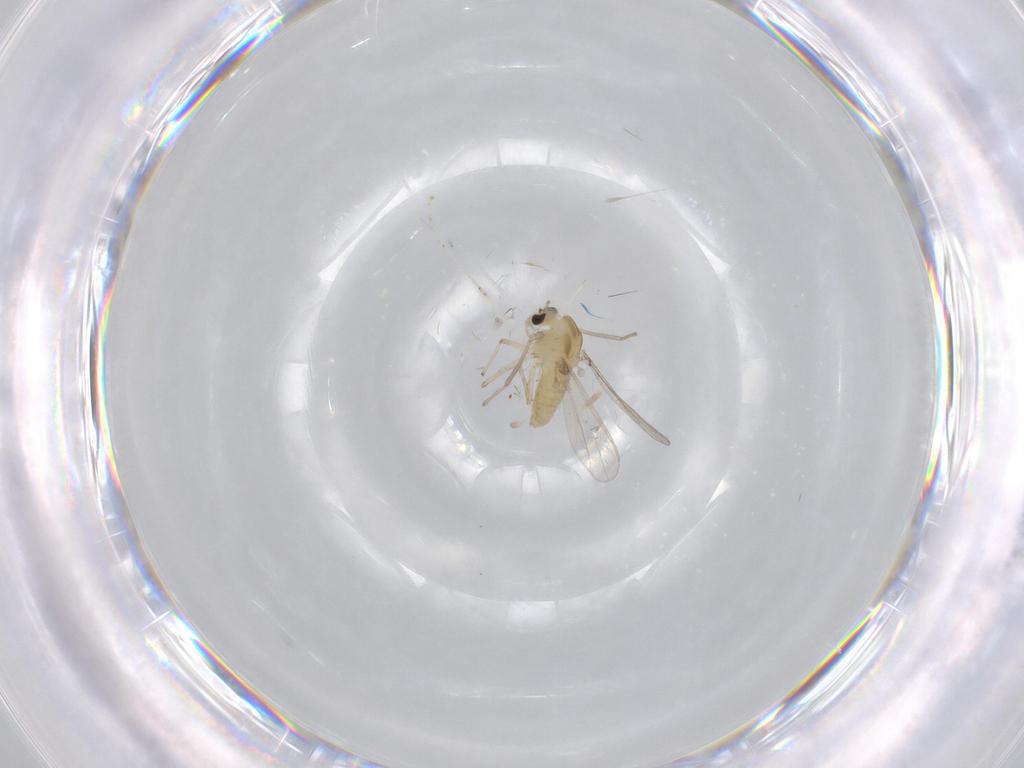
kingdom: Animalia
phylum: Arthropoda
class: Insecta
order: Diptera
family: Chironomidae
